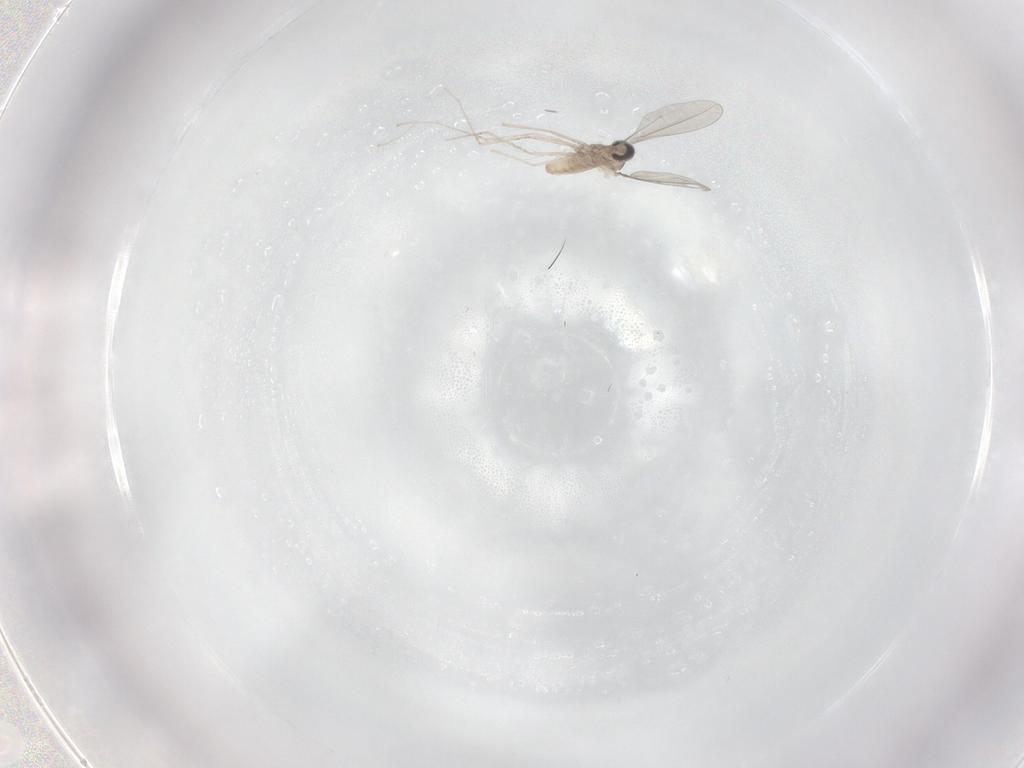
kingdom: Animalia
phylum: Arthropoda
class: Insecta
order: Diptera
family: Cecidomyiidae
